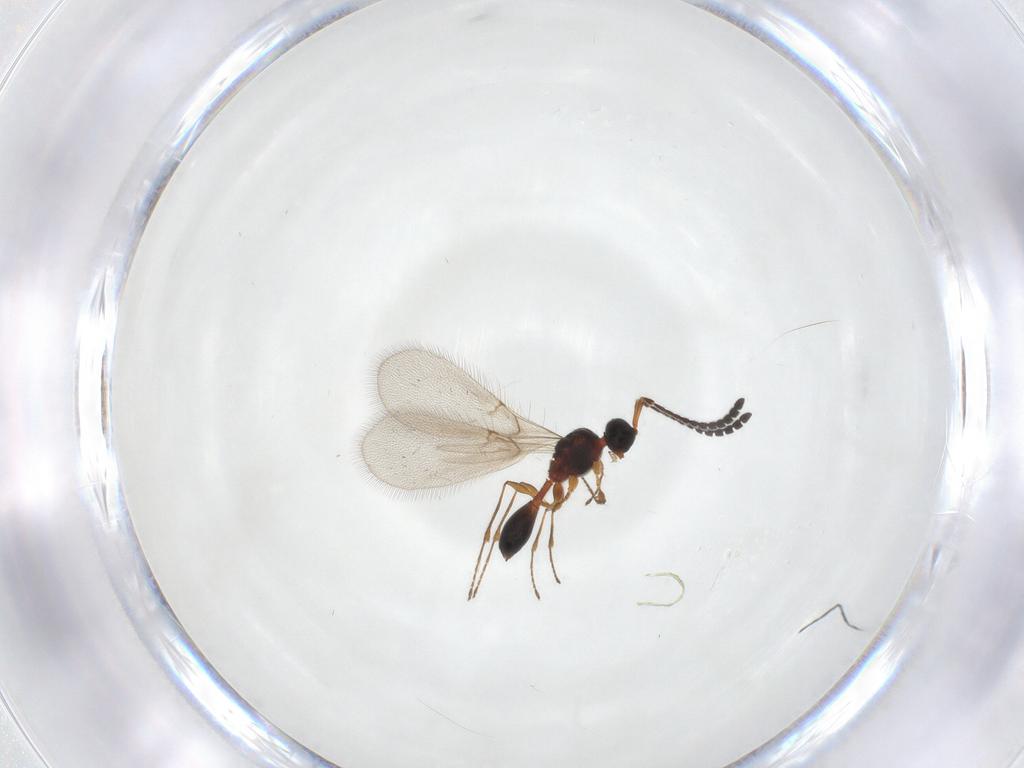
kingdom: Animalia
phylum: Arthropoda
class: Insecta
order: Hymenoptera
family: Diapriidae
